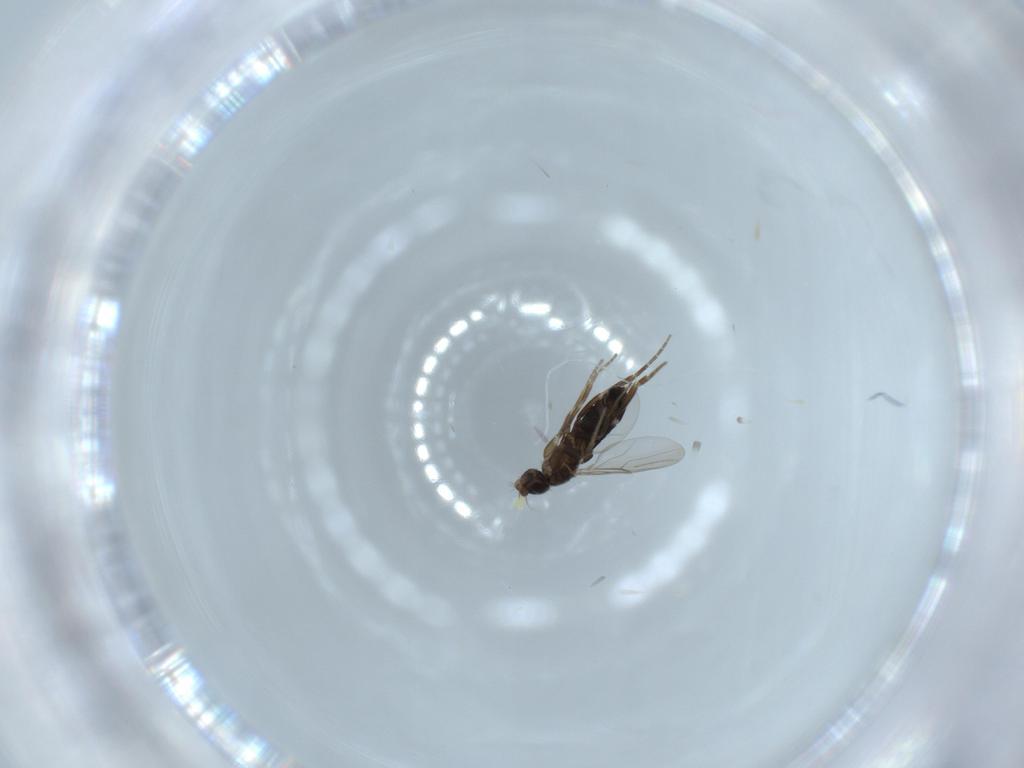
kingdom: Animalia
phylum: Arthropoda
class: Insecta
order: Diptera
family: Phoridae
